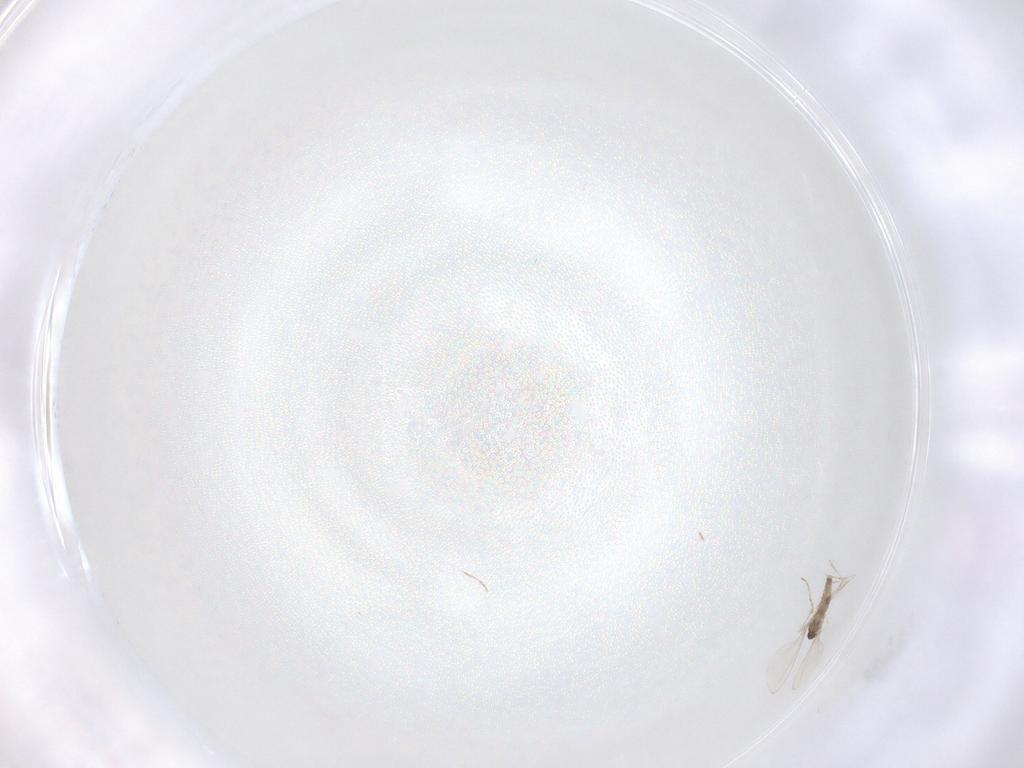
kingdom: Animalia
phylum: Arthropoda
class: Insecta
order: Diptera
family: Cecidomyiidae
